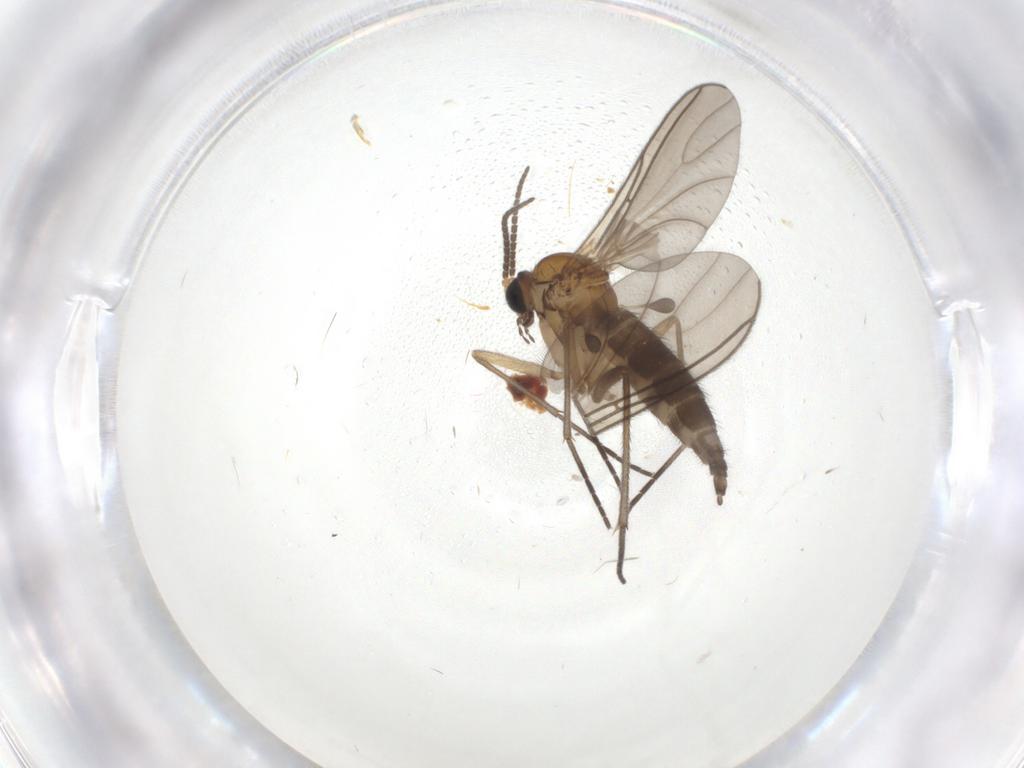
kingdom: Animalia
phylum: Arthropoda
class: Insecta
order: Diptera
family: Sciaridae
